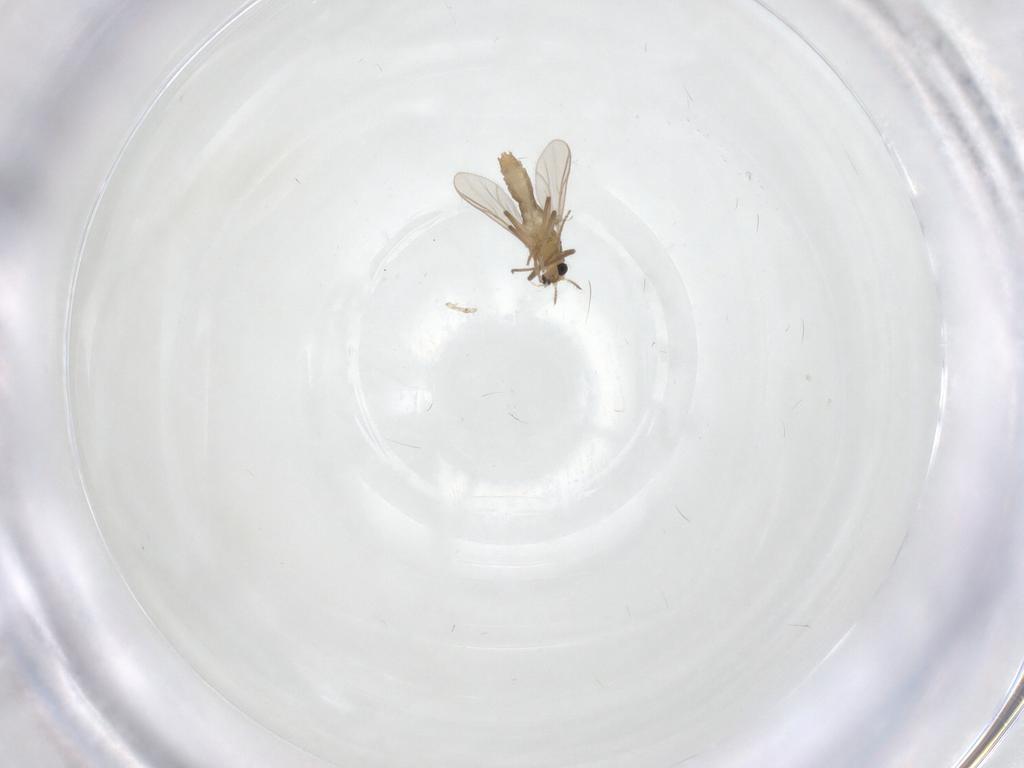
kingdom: Animalia
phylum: Arthropoda
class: Insecta
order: Diptera
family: Chironomidae
